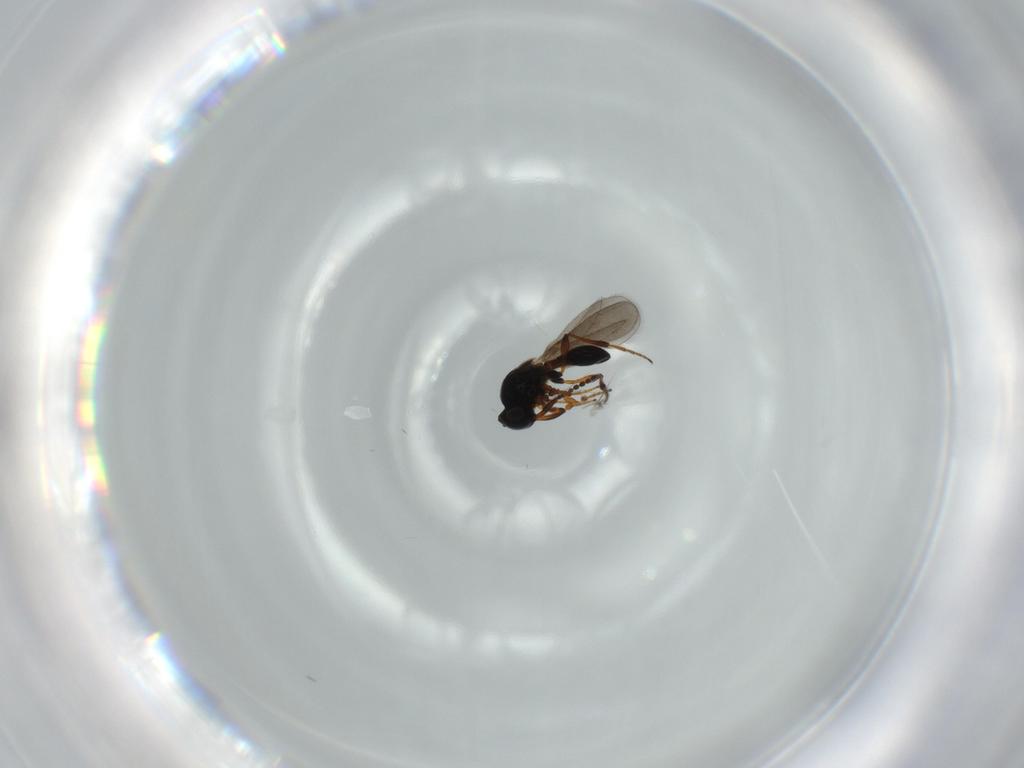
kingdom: Animalia
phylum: Arthropoda
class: Insecta
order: Hymenoptera
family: Platygastridae
